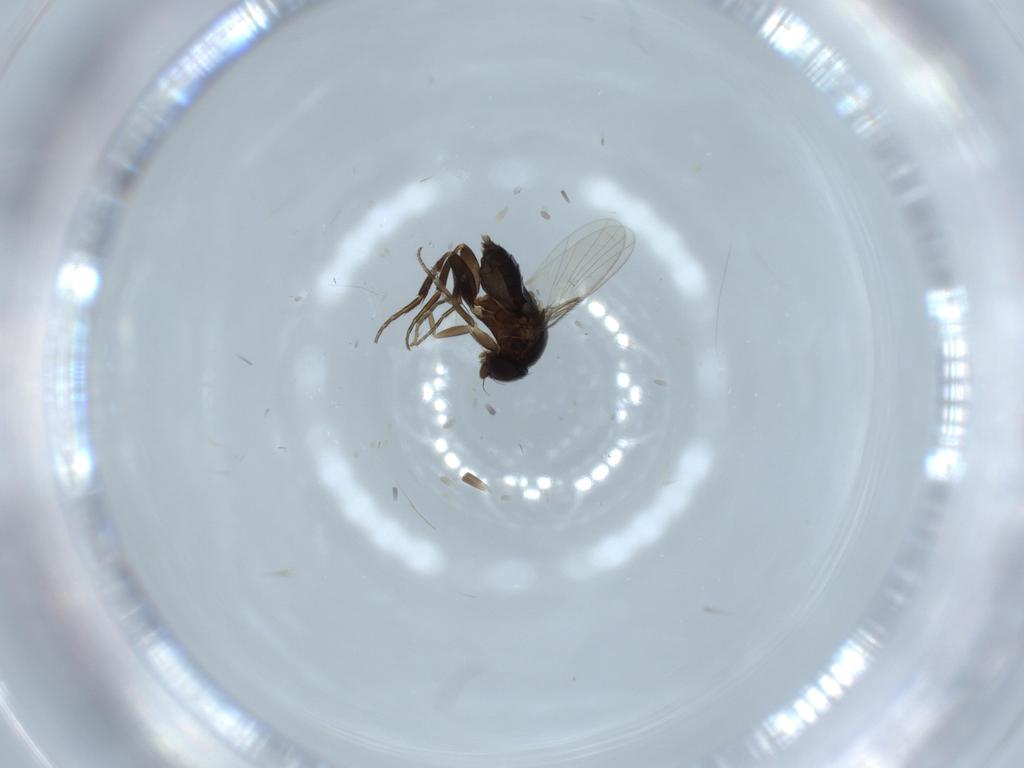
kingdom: Animalia
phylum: Arthropoda
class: Insecta
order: Diptera
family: Phoridae
